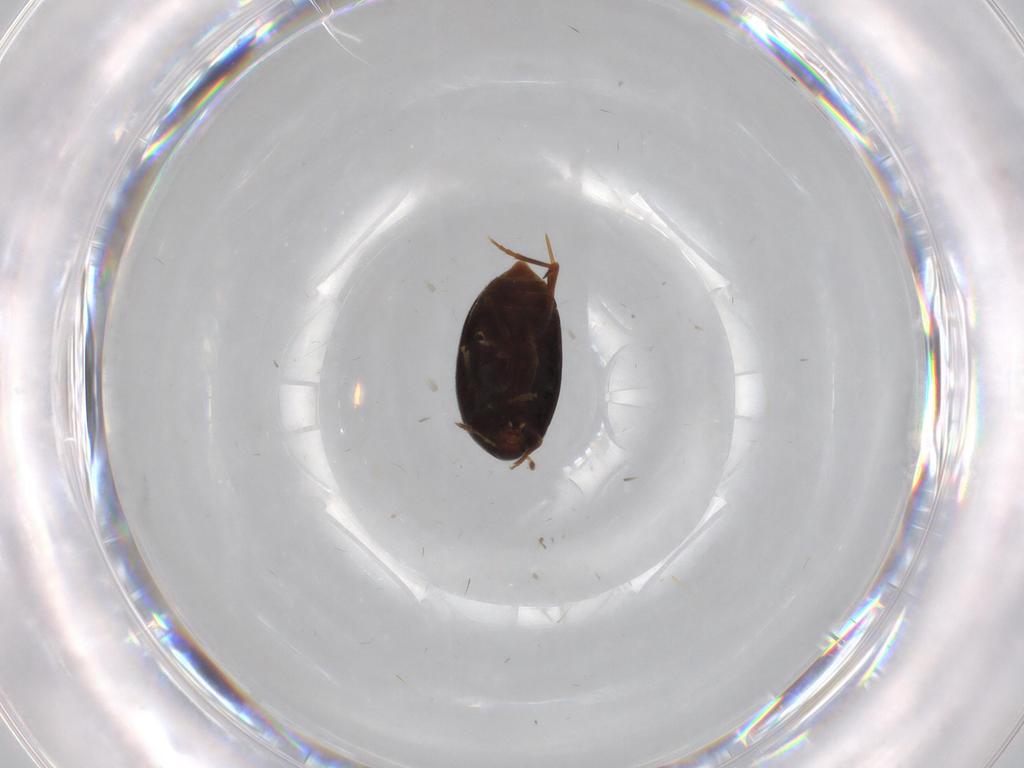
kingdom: Animalia
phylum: Arthropoda
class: Insecta
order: Coleoptera
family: Melandryidae
